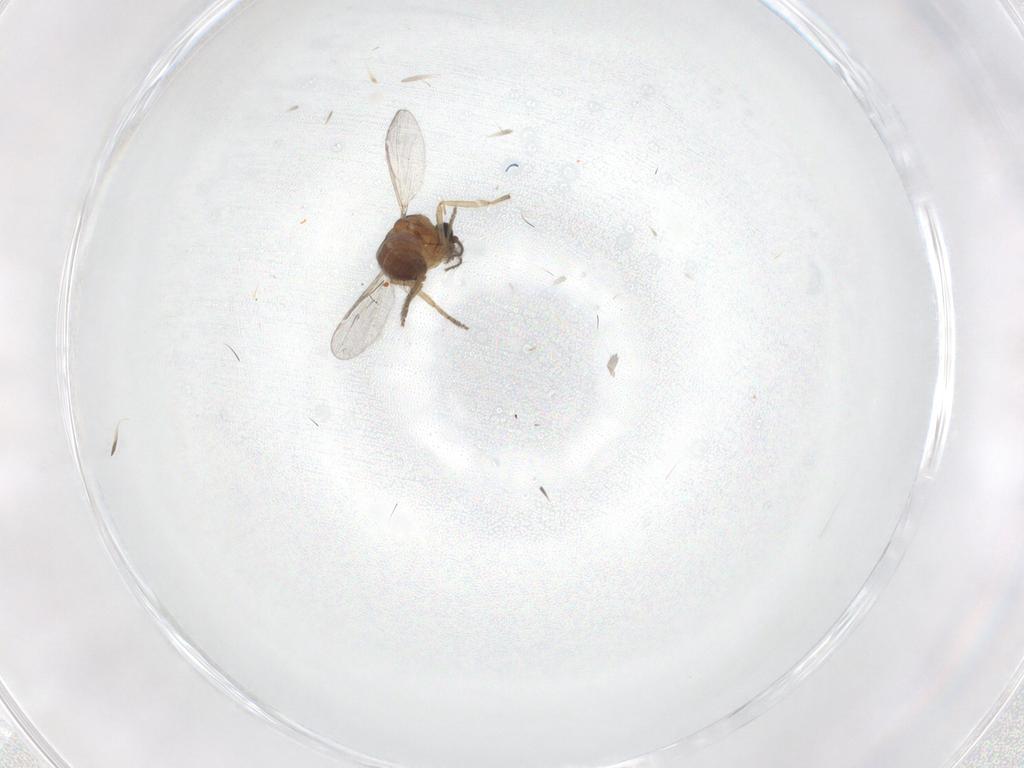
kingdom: Animalia
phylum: Arthropoda
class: Insecta
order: Diptera
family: Ceratopogonidae
